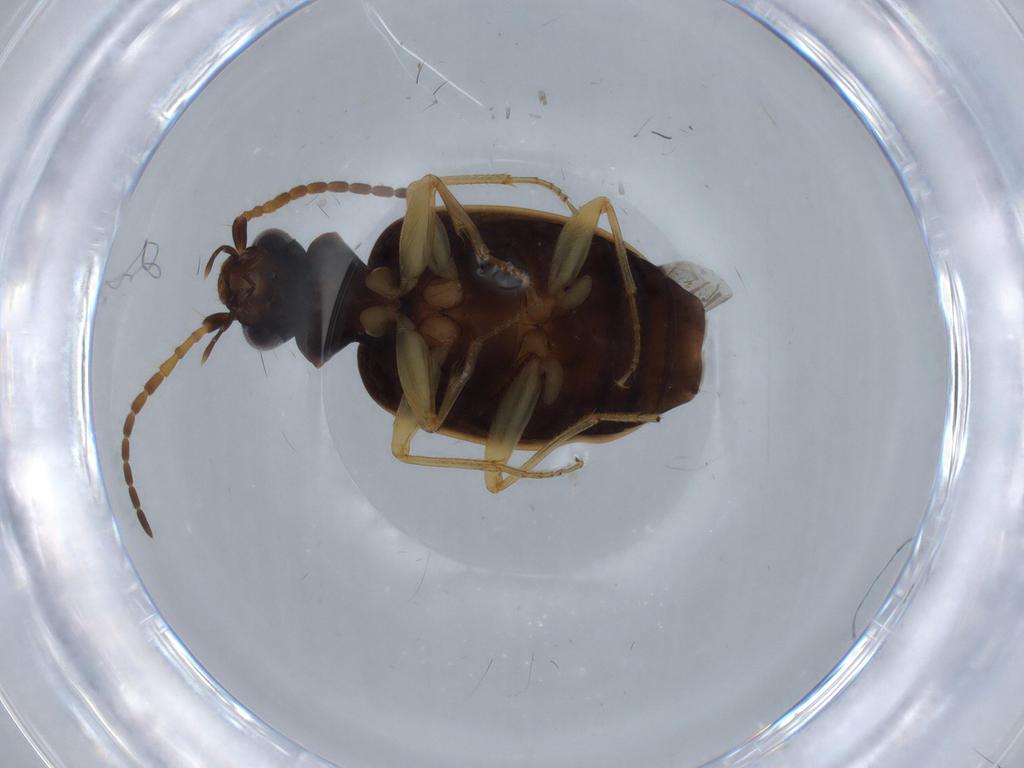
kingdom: Animalia
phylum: Arthropoda
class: Insecta
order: Coleoptera
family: Carabidae
